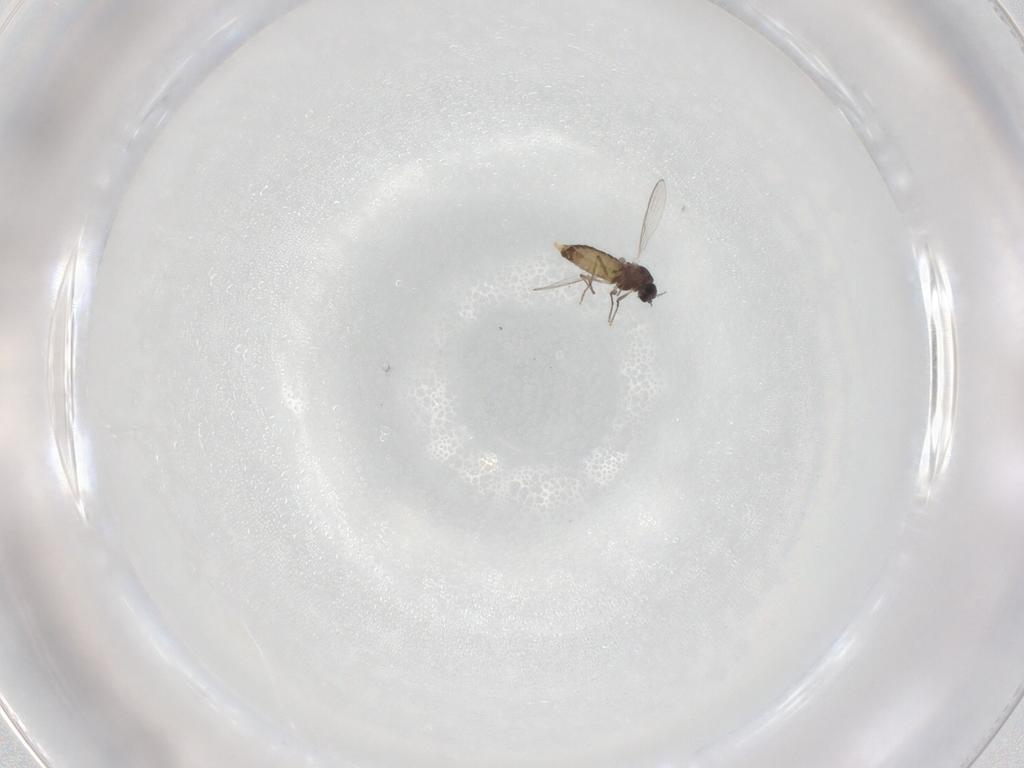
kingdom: Animalia
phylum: Arthropoda
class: Insecta
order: Diptera
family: Chironomidae
